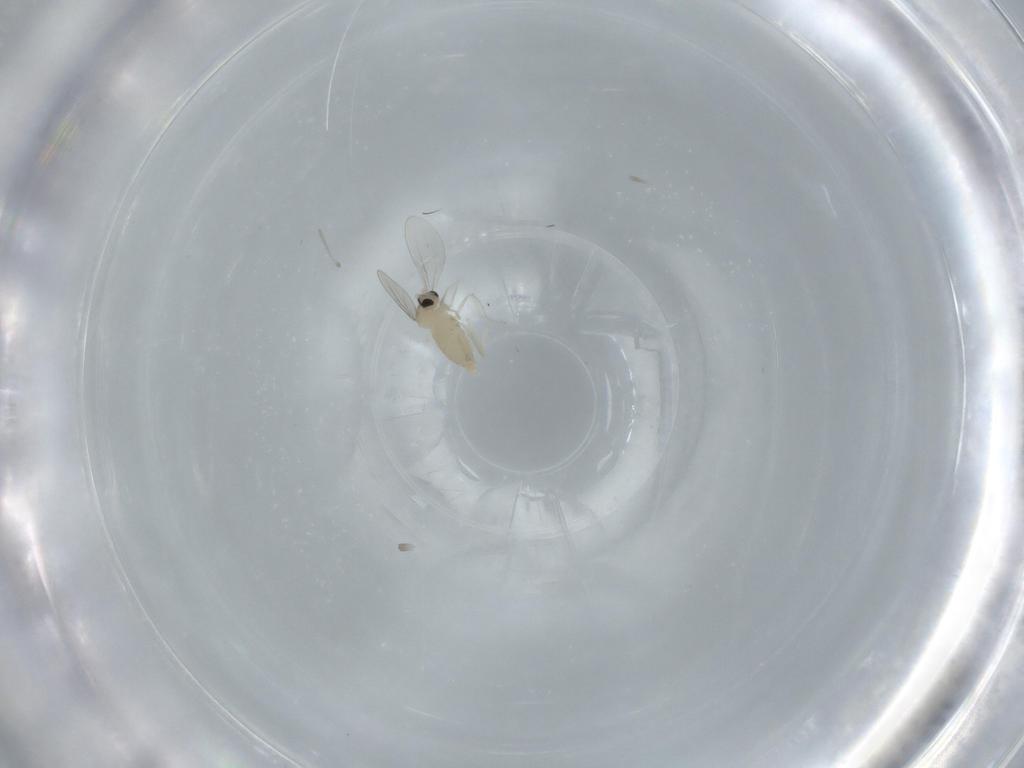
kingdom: Animalia
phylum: Arthropoda
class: Insecta
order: Diptera
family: Cecidomyiidae
